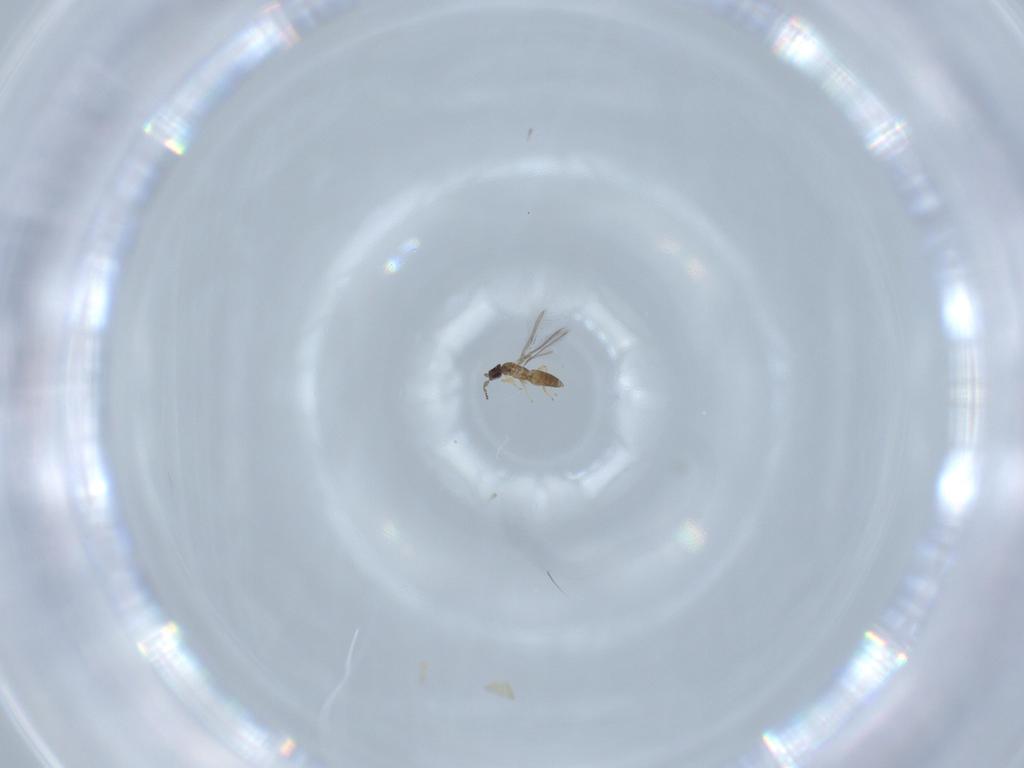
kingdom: Animalia
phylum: Arthropoda
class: Insecta
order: Hymenoptera
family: Mymaridae
